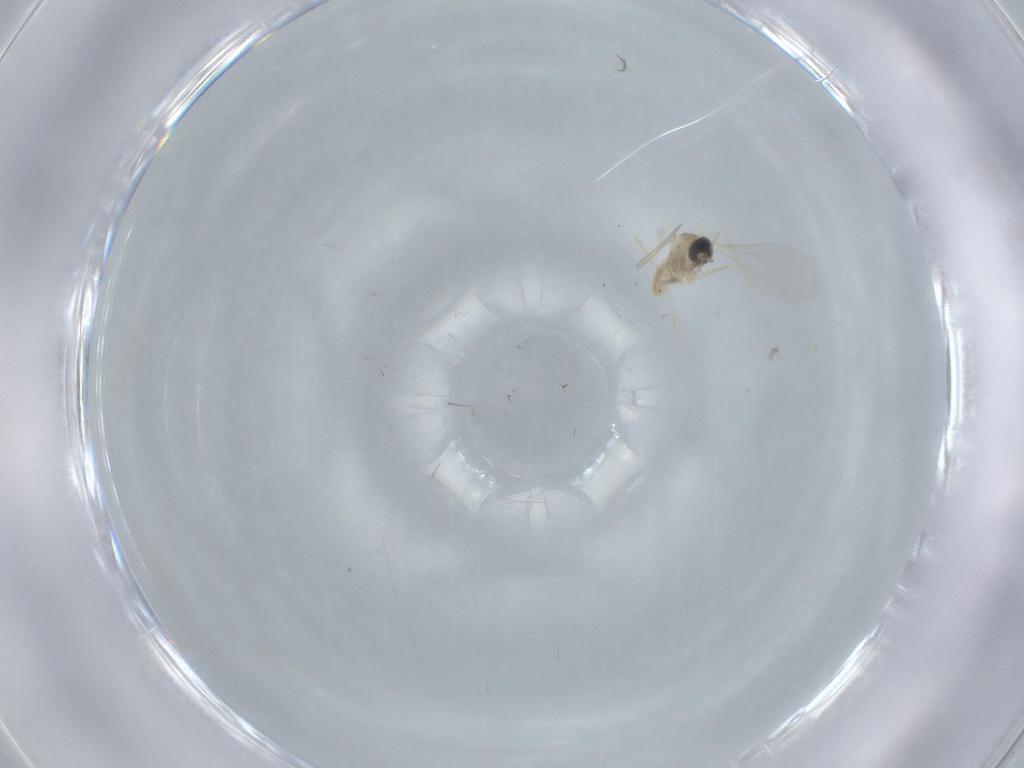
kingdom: Animalia
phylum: Arthropoda
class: Insecta
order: Diptera
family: Cecidomyiidae
